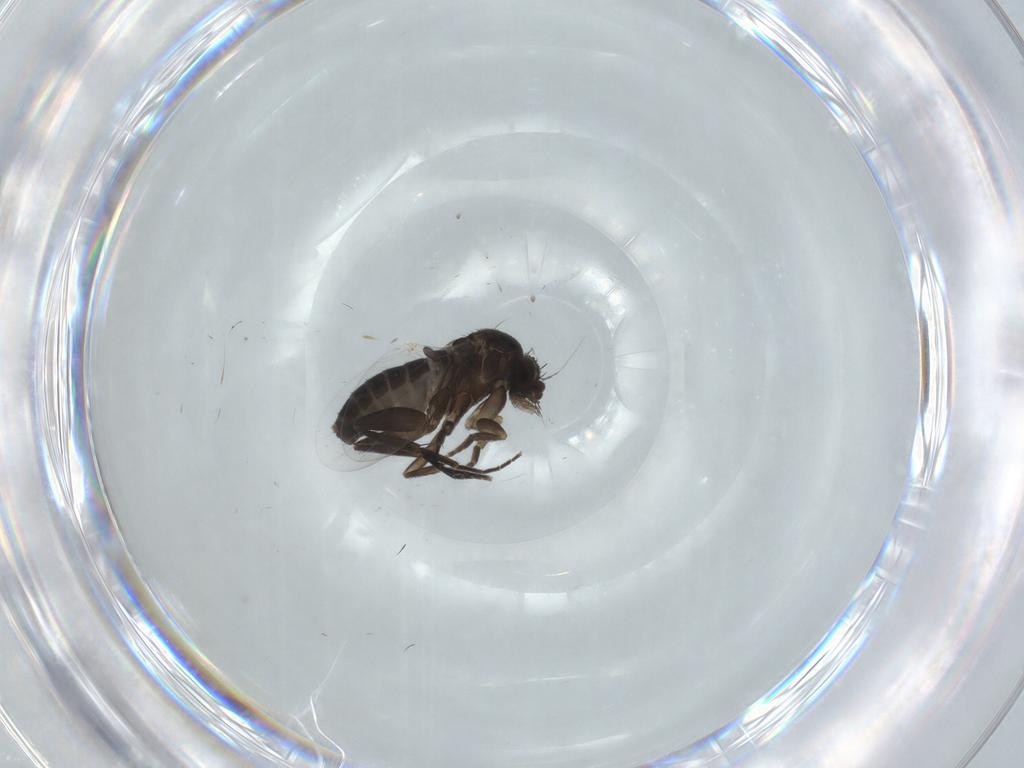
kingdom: Animalia
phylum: Arthropoda
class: Insecta
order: Diptera
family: Phoridae
